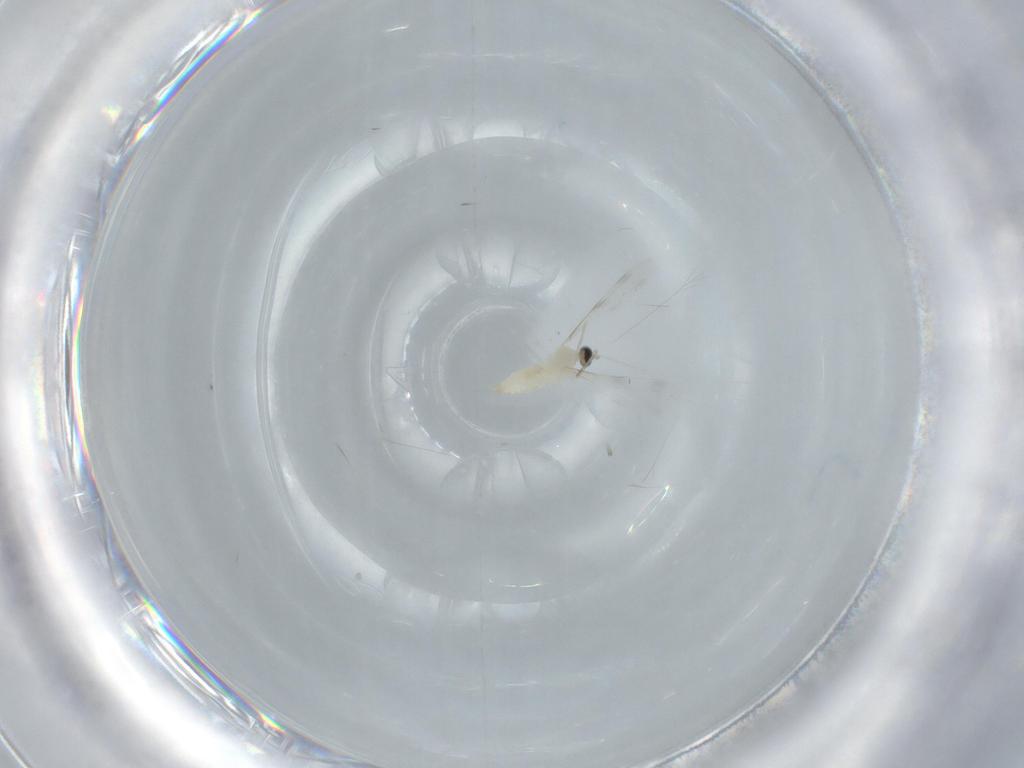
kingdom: Animalia
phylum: Arthropoda
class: Insecta
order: Diptera
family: Cecidomyiidae
